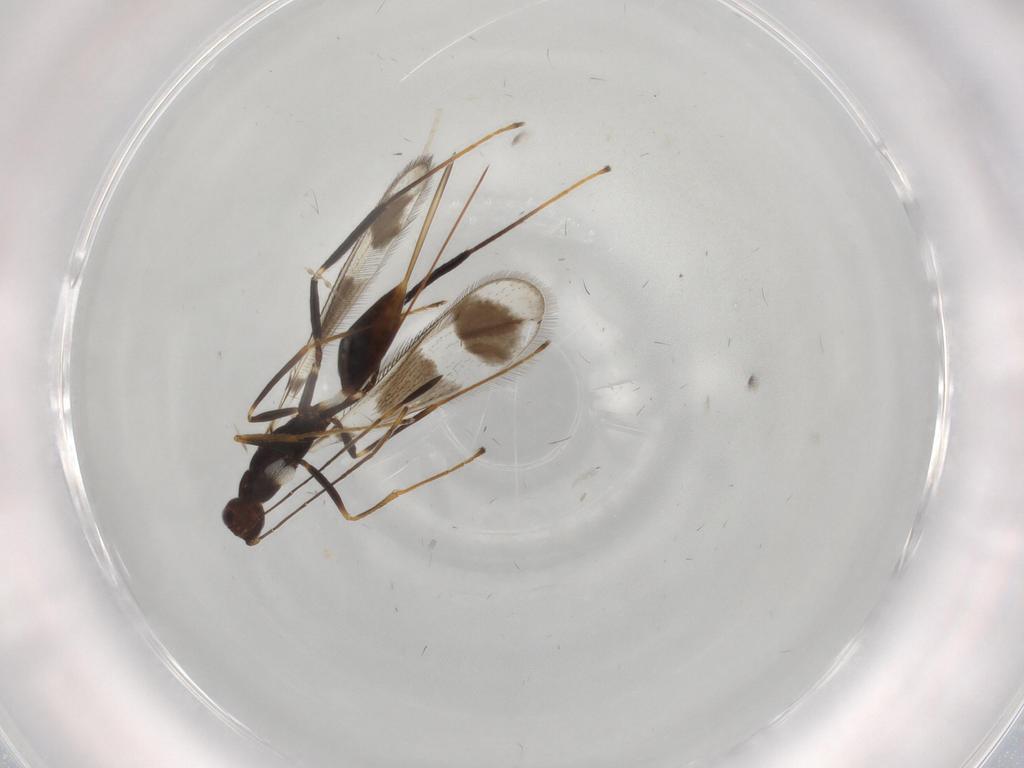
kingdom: Animalia
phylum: Arthropoda
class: Insecta
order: Hymenoptera
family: Mymaridae
